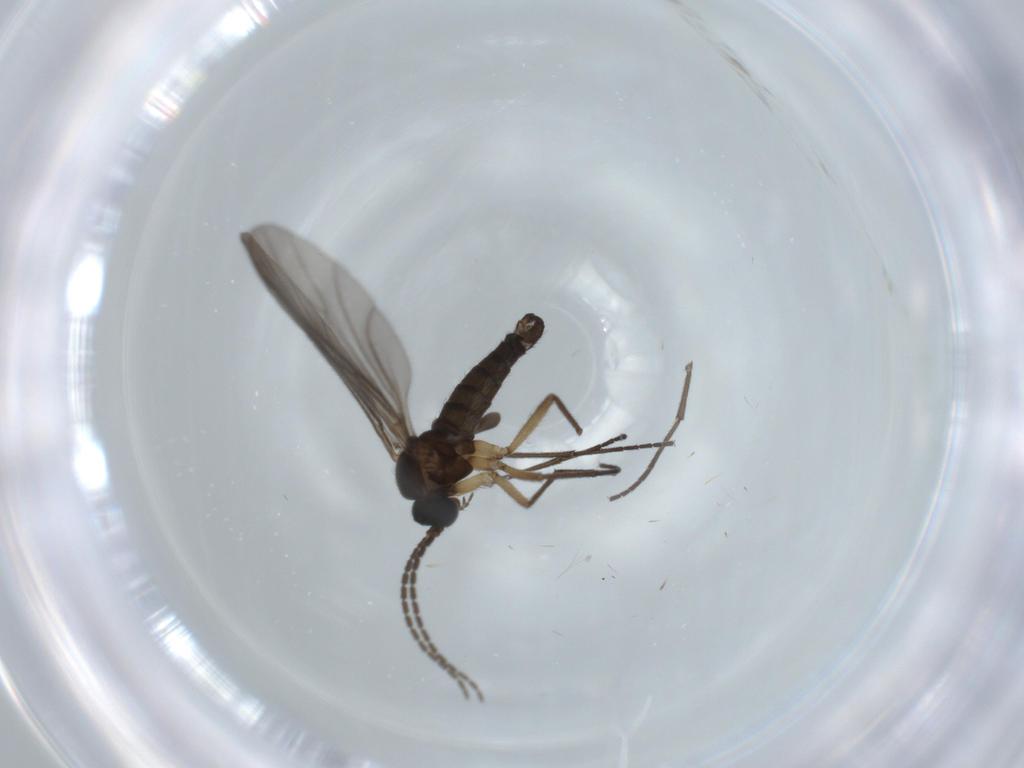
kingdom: Animalia
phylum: Arthropoda
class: Insecta
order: Diptera
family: Sciaridae
